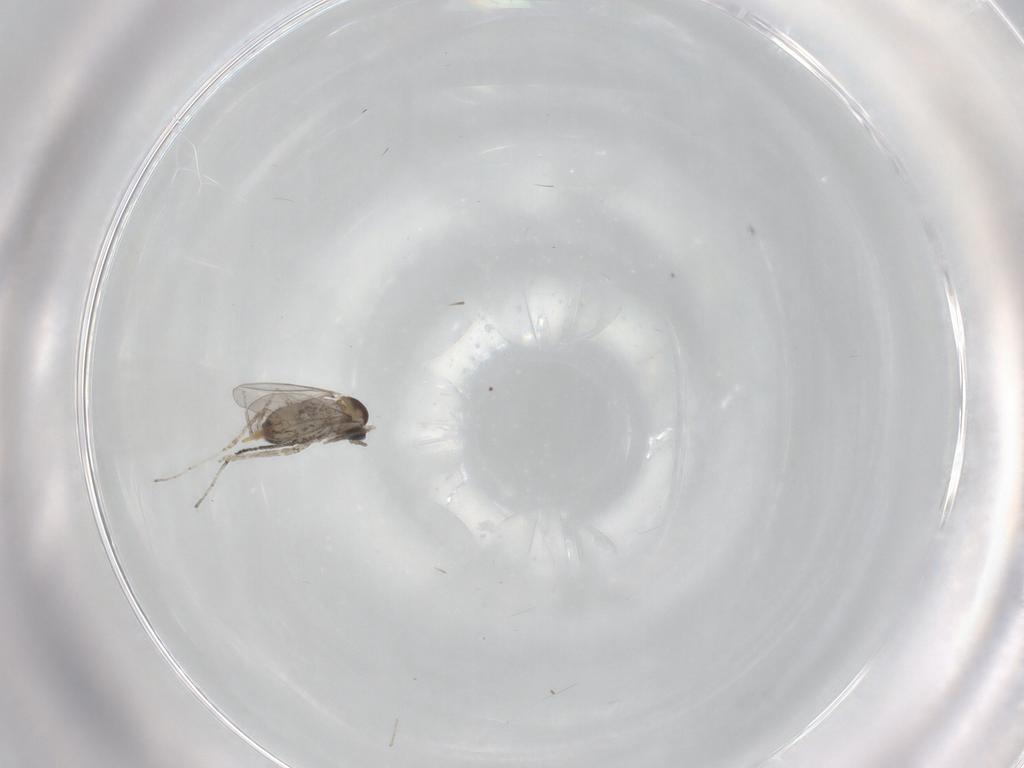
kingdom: Animalia
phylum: Arthropoda
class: Insecta
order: Diptera
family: Cecidomyiidae
